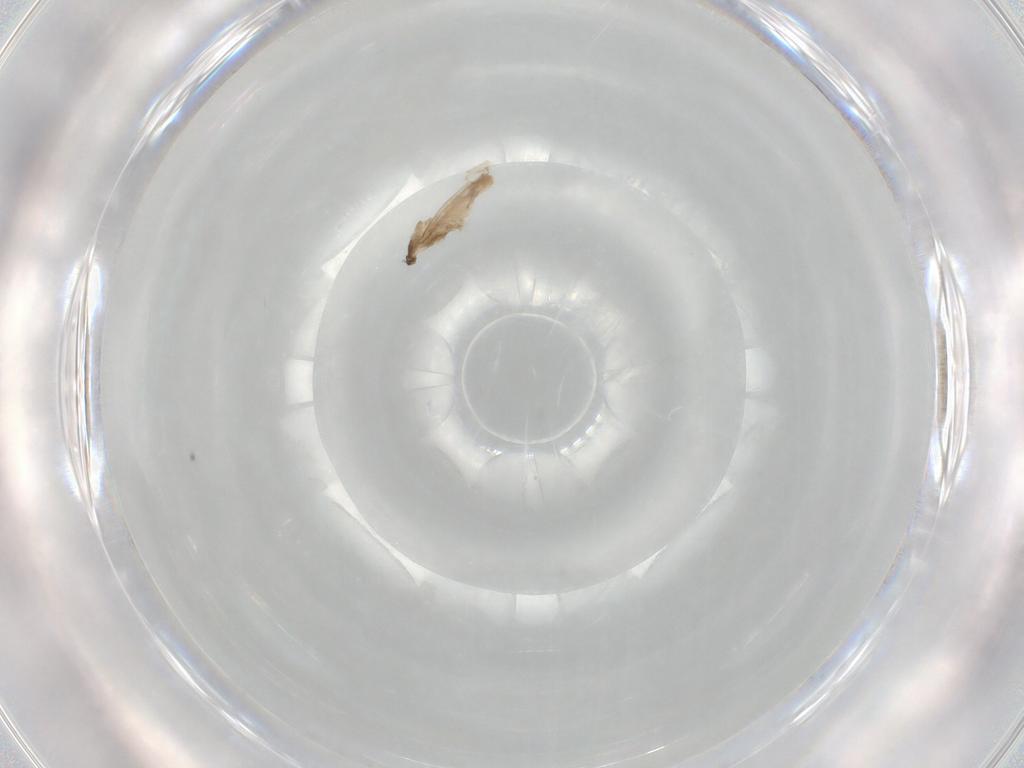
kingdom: Animalia
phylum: Arthropoda
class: Insecta
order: Diptera
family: Muscidae
